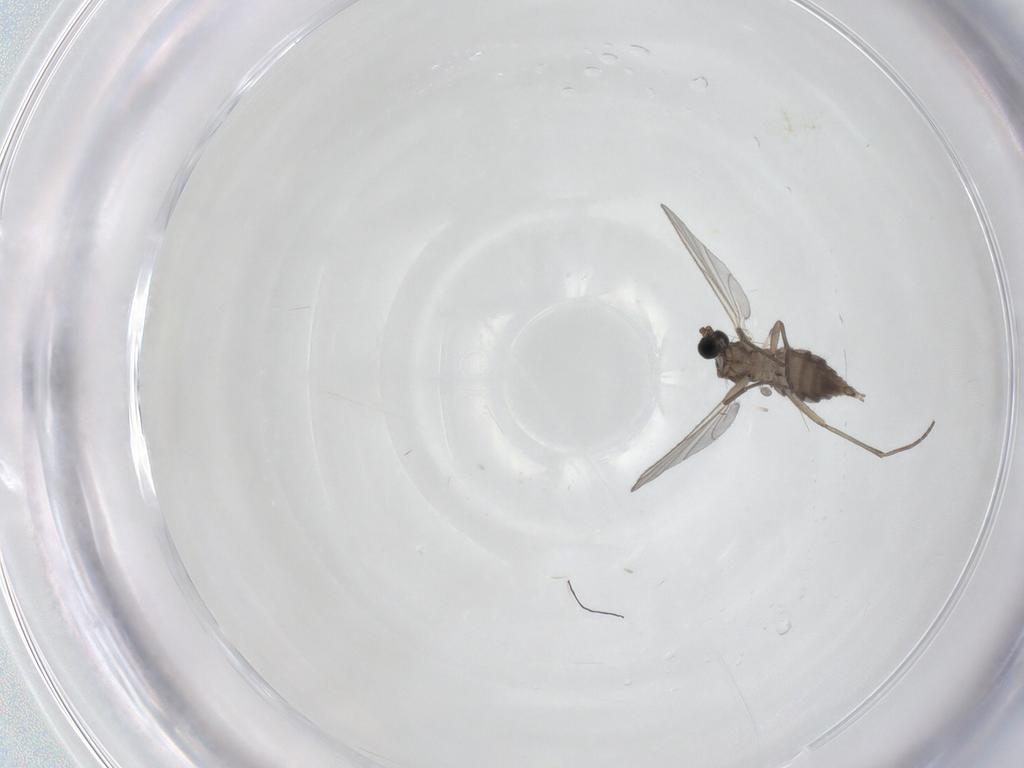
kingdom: Animalia
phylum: Arthropoda
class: Insecta
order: Diptera
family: Sciaridae
